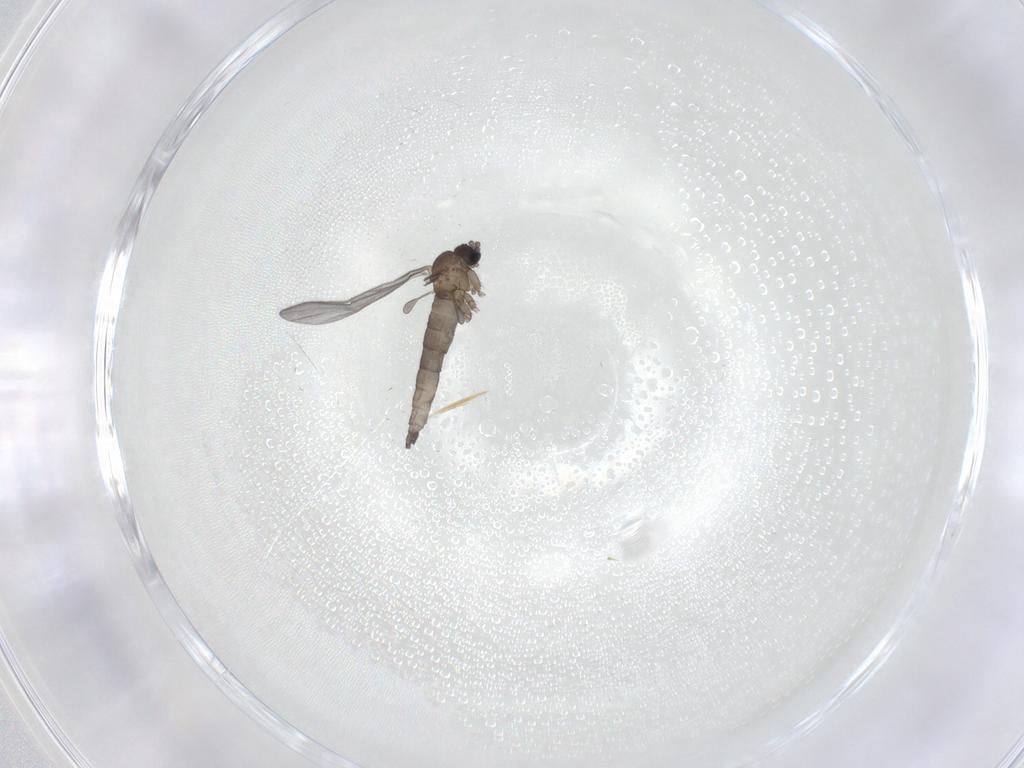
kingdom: Animalia
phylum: Arthropoda
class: Insecta
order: Diptera
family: Sciaridae
